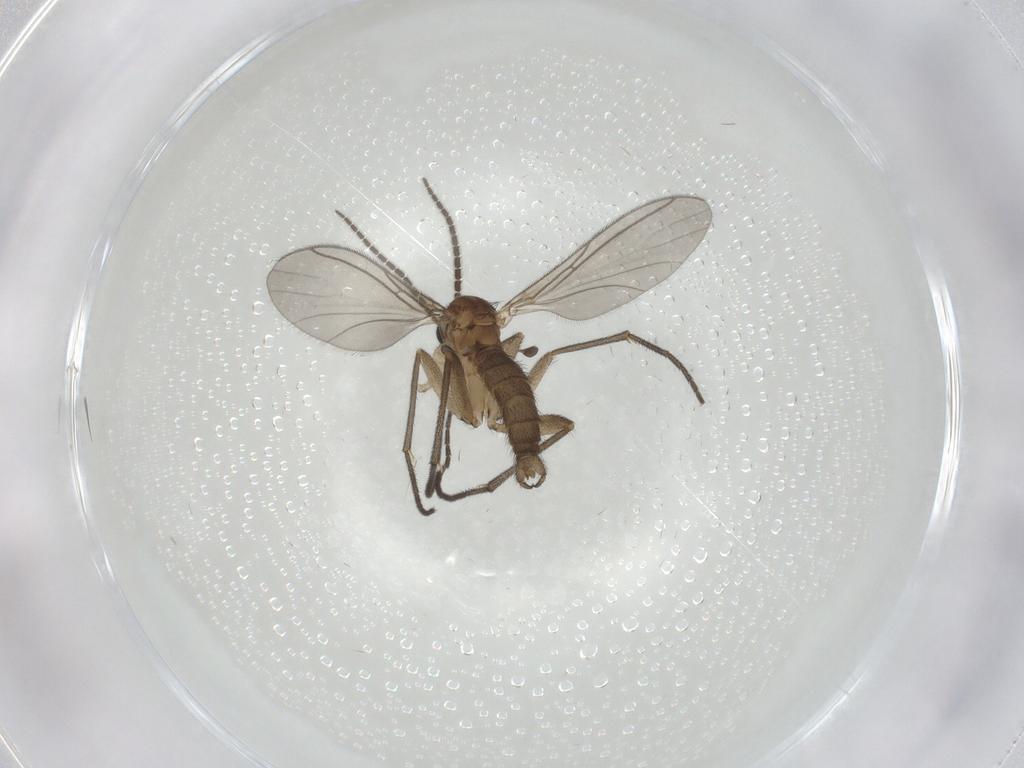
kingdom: Animalia
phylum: Arthropoda
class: Insecta
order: Diptera
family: Sciaridae
